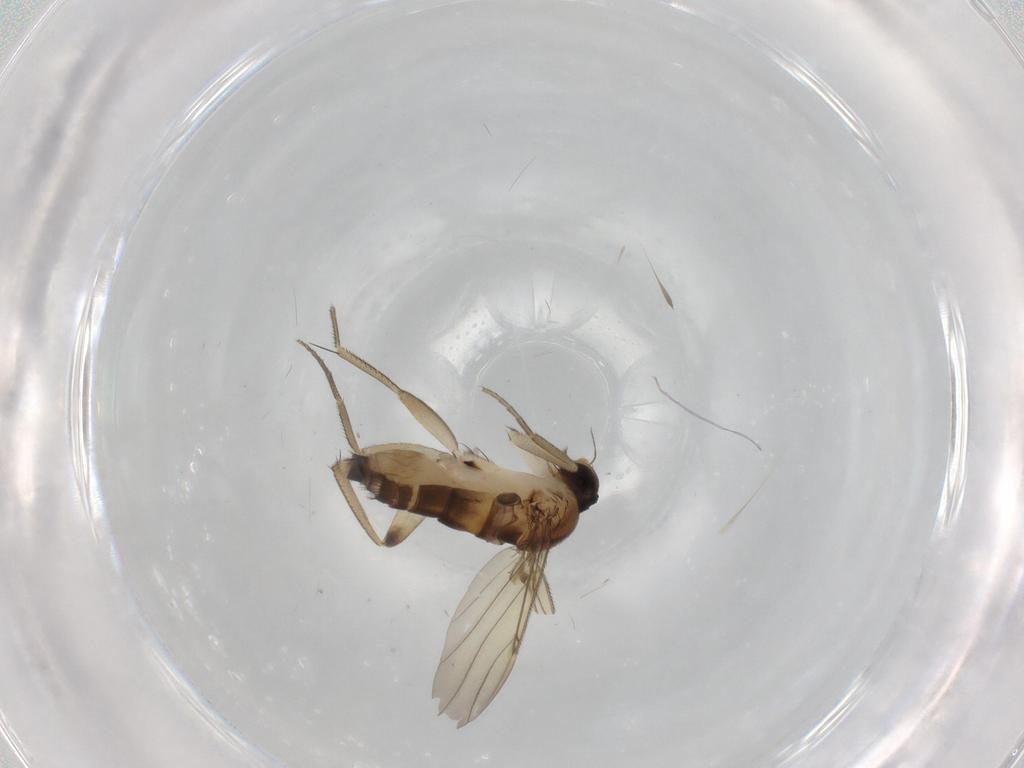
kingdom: Animalia
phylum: Arthropoda
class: Insecta
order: Diptera
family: Phoridae
